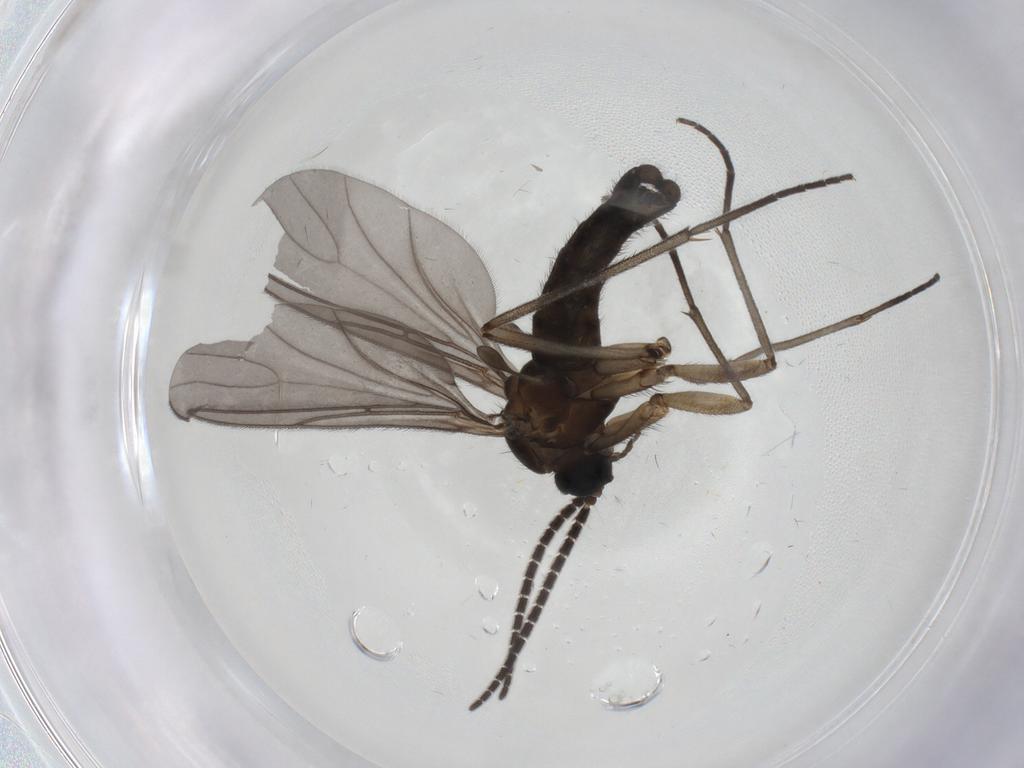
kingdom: Animalia
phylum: Arthropoda
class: Insecta
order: Diptera
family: Sciaridae
